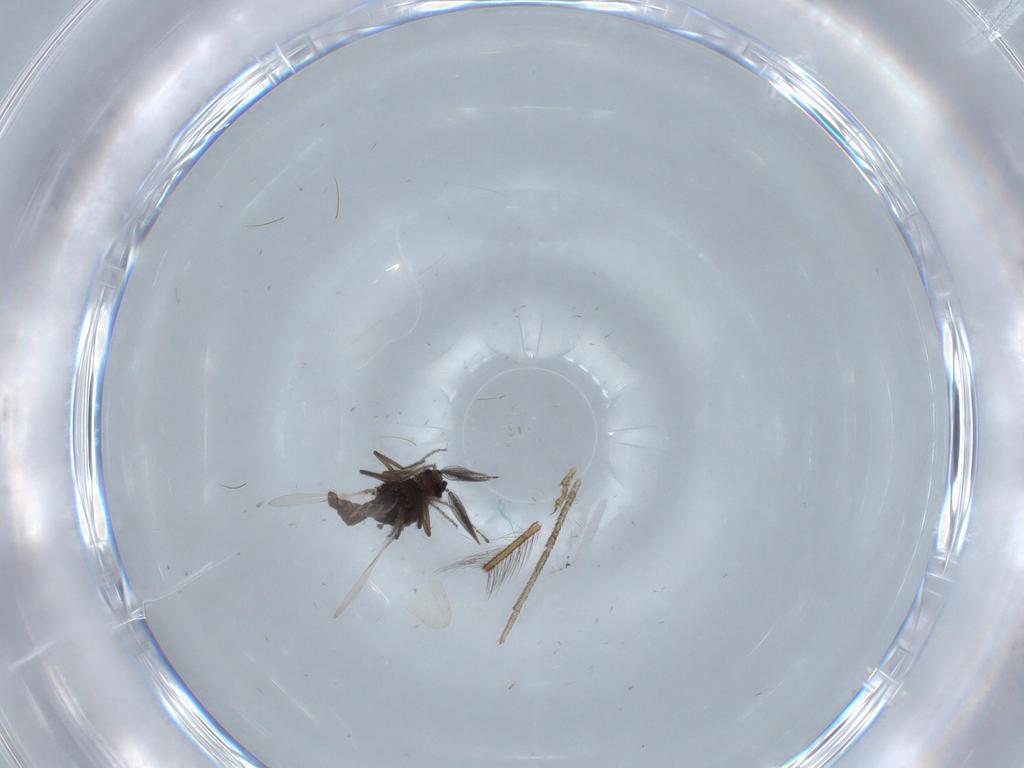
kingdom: Animalia
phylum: Arthropoda
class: Insecta
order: Diptera
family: Ceratopogonidae
